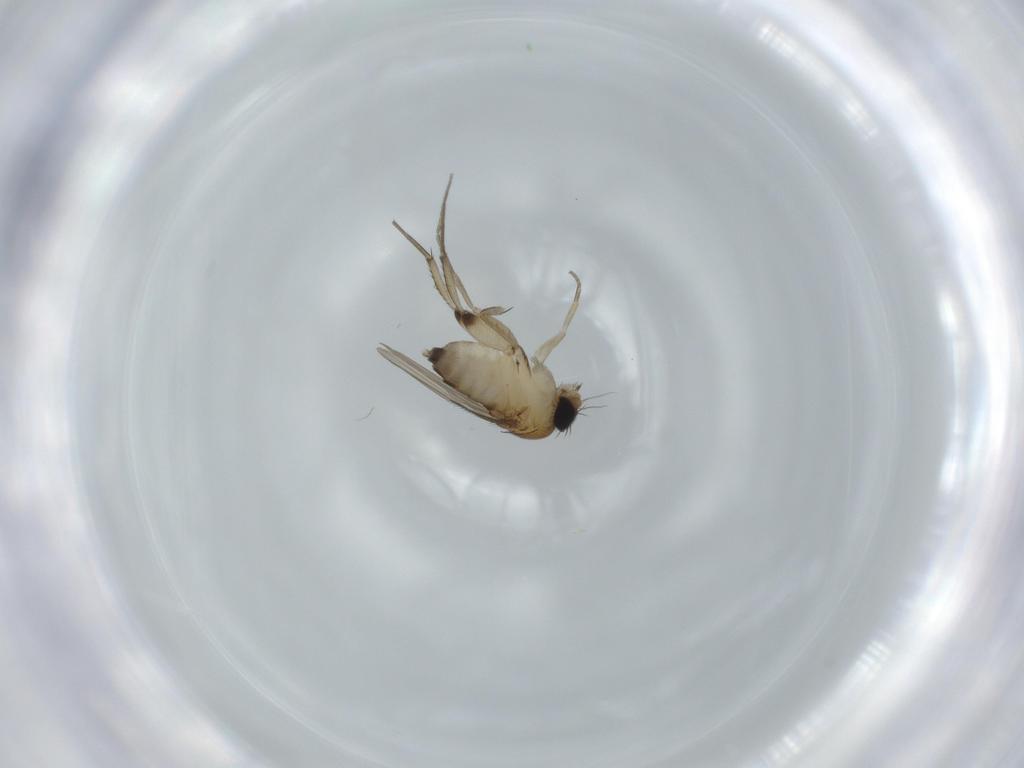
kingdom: Animalia
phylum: Arthropoda
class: Insecta
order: Diptera
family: Phoridae
